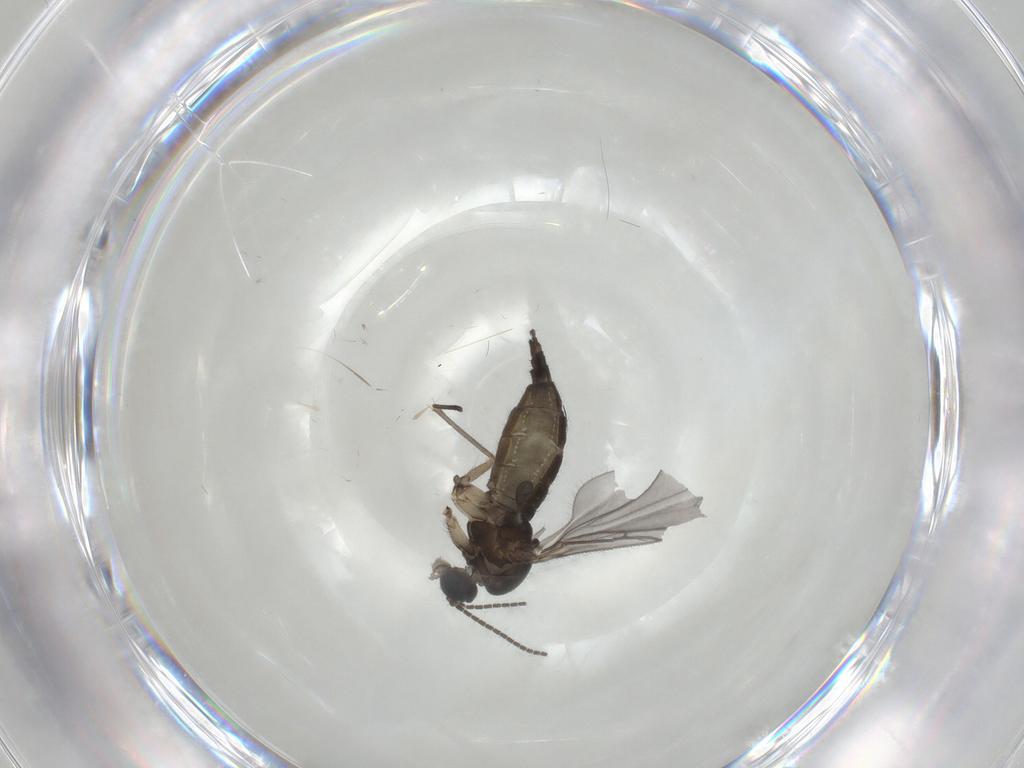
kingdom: Animalia
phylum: Arthropoda
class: Insecta
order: Diptera
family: Sciaridae
